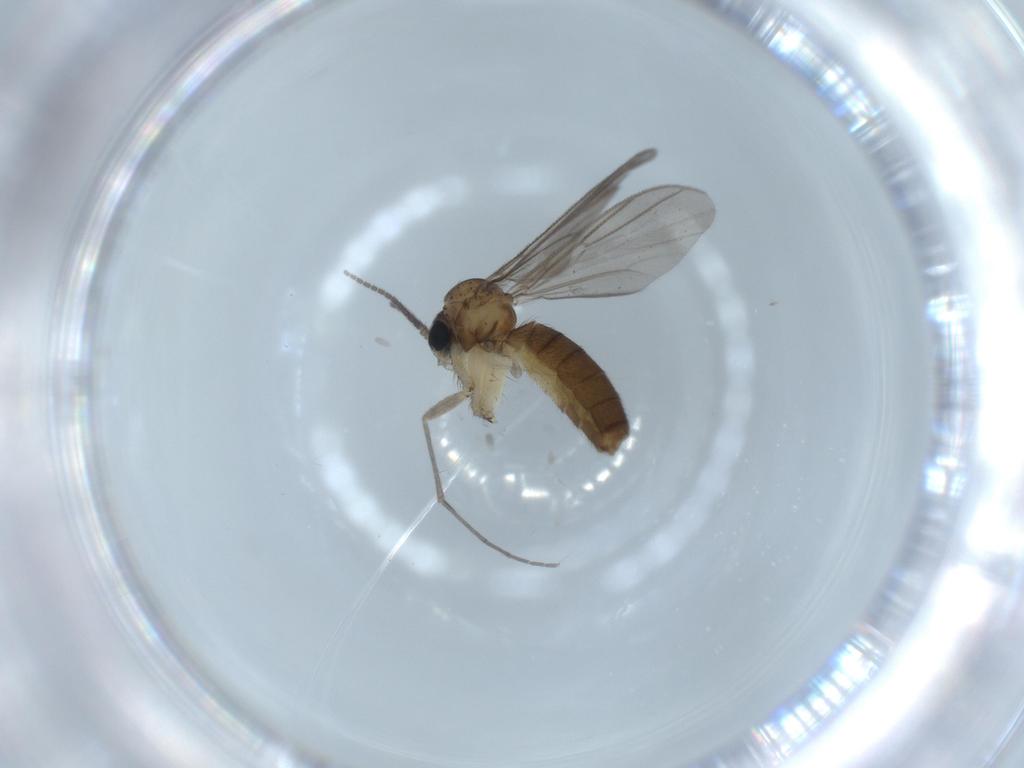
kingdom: Animalia
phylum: Arthropoda
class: Insecta
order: Diptera
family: Mycetophilidae
